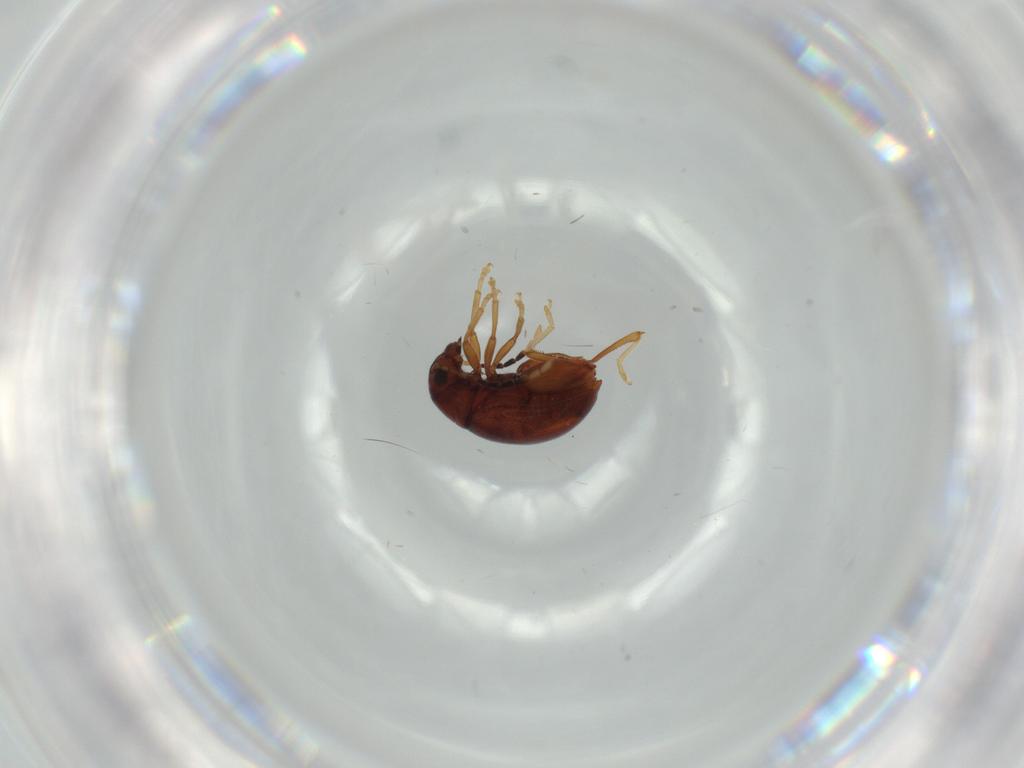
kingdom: Animalia
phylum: Arthropoda
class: Insecta
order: Coleoptera
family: Chrysomelidae
